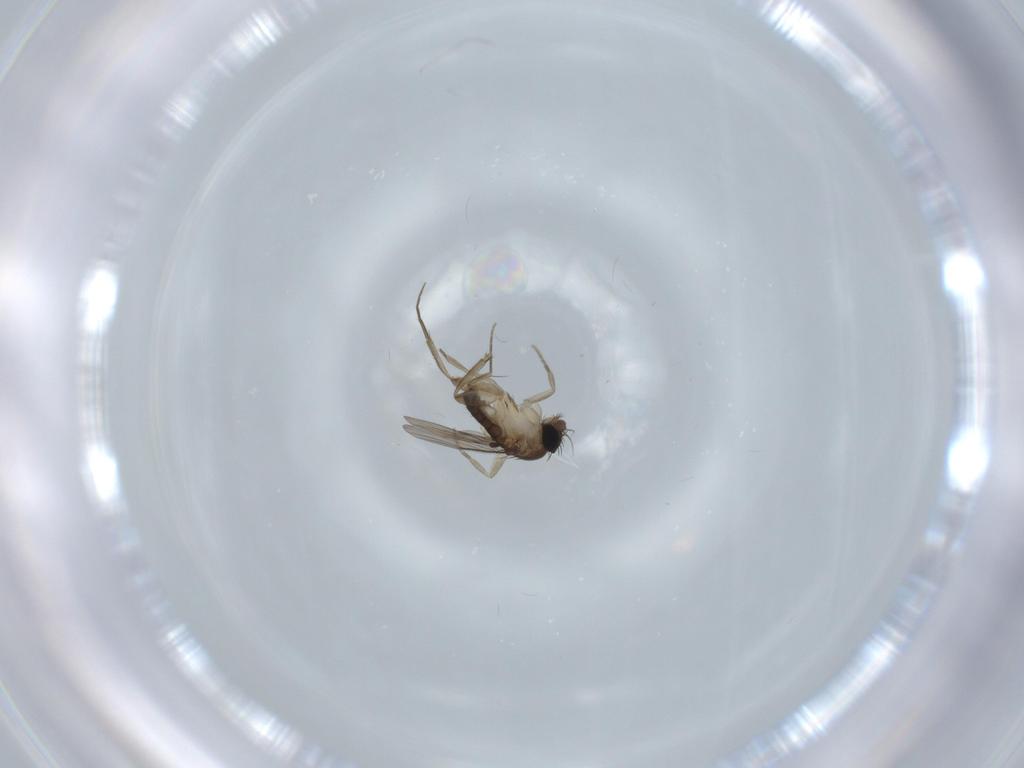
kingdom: Animalia
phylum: Arthropoda
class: Insecta
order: Diptera
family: Phoridae
